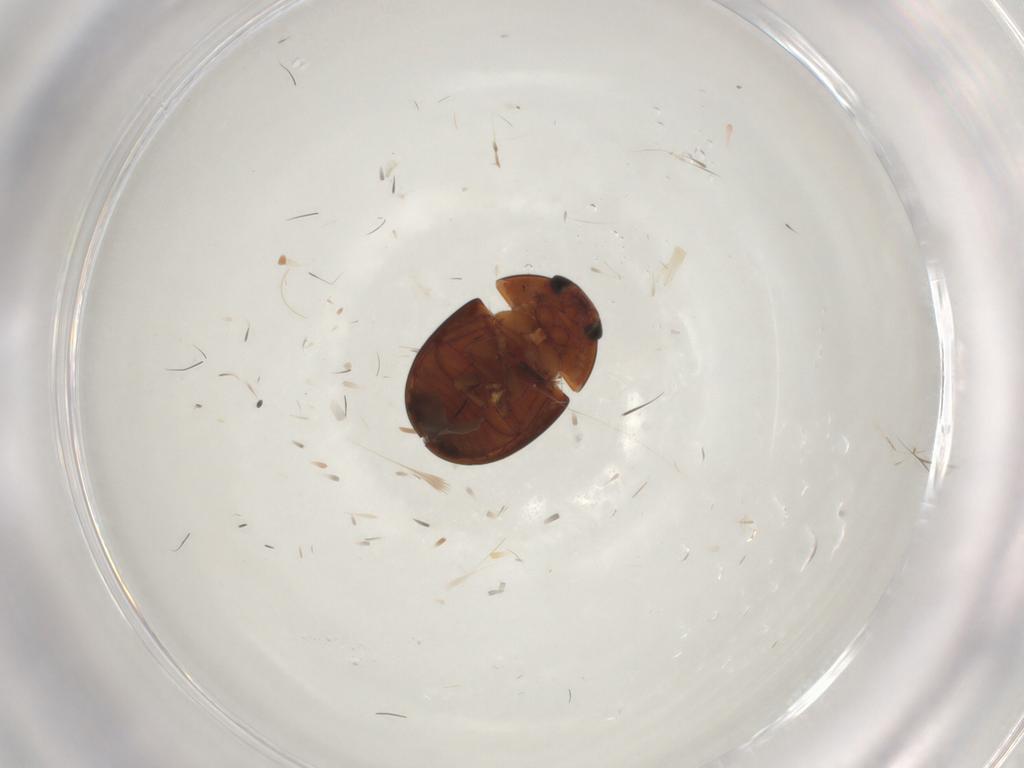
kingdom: Animalia
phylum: Arthropoda
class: Insecta
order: Coleoptera
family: Phalacridae
